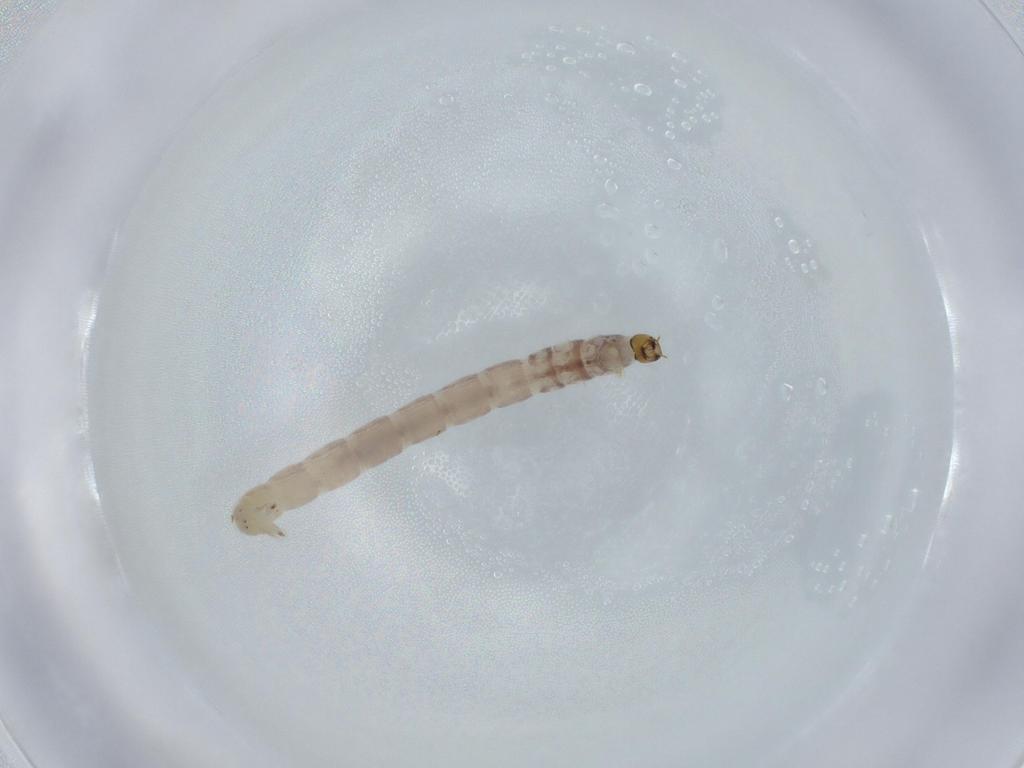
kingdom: Animalia
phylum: Arthropoda
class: Insecta
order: Diptera
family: Chironomidae
